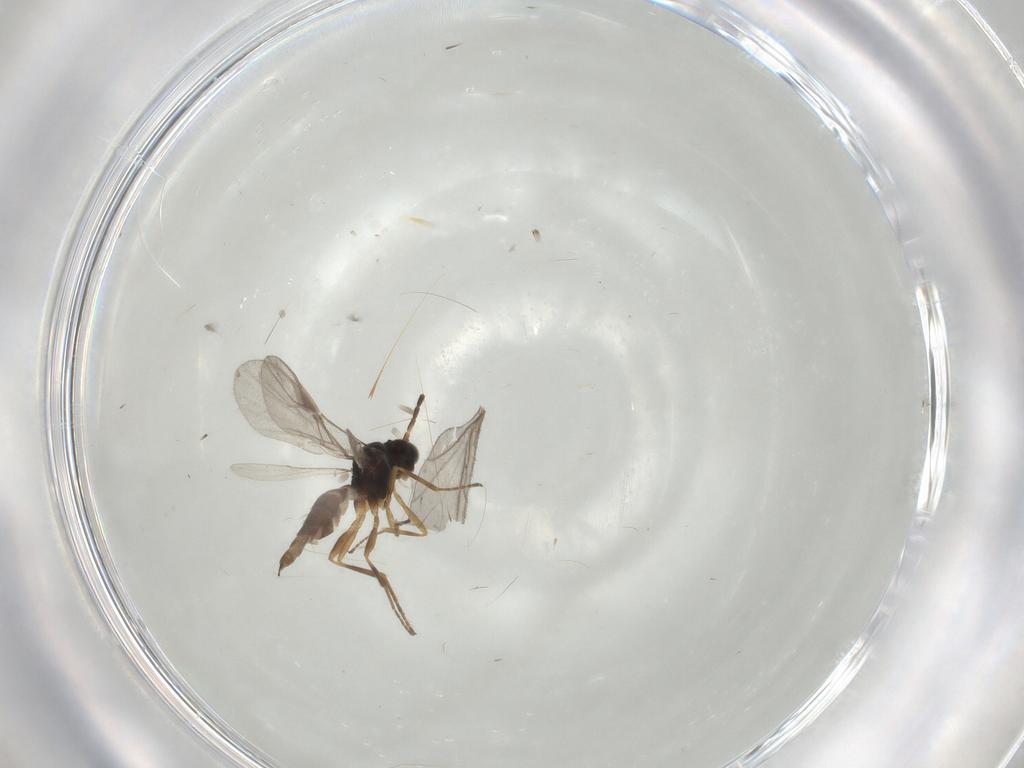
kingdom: Animalia
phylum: Arthropoda
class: Insecta
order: Hymenoptera
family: Braconidae
